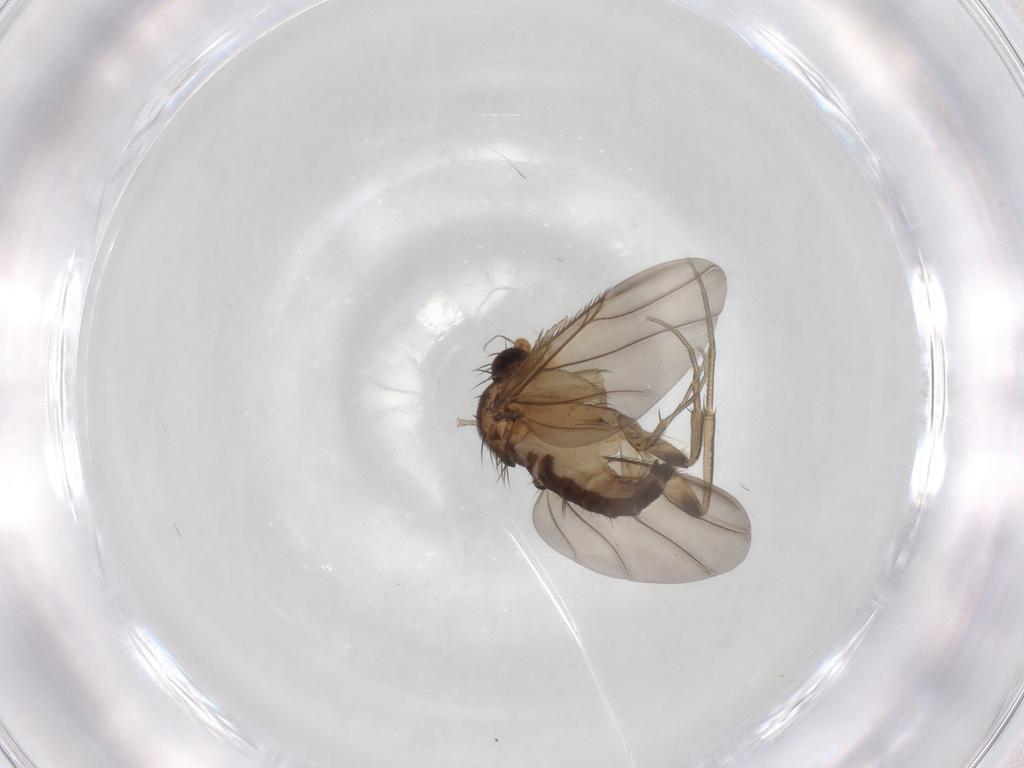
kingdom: Animalia
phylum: Arthropoda
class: Insecta
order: Diptera
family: Phoridae
